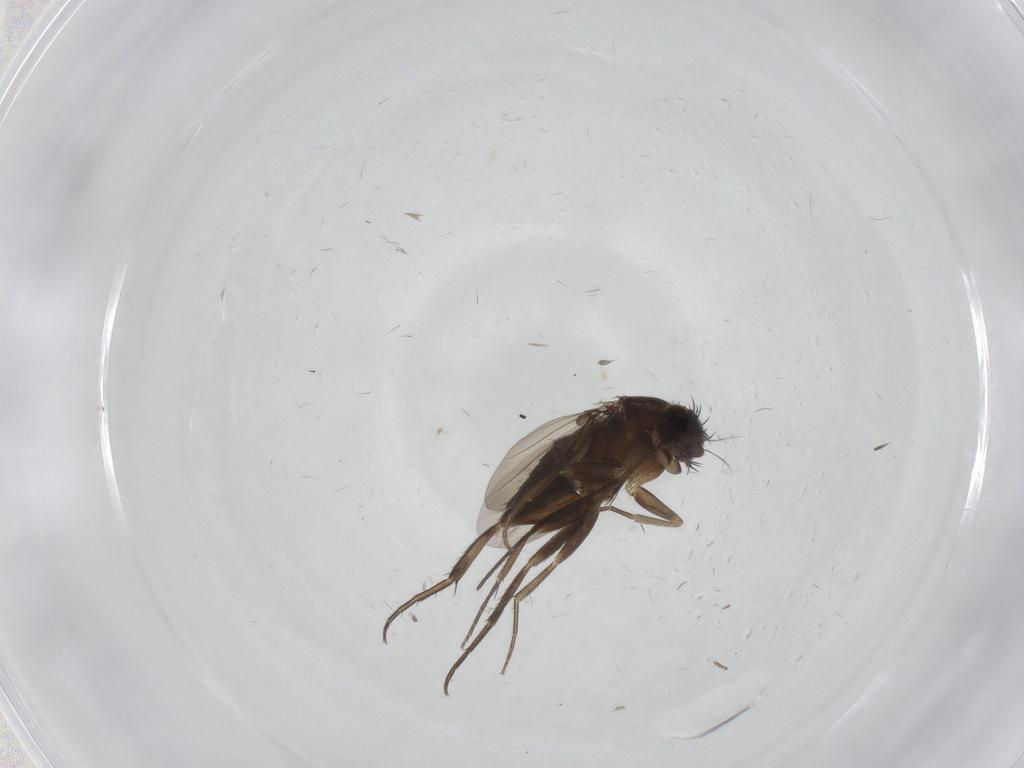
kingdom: Animalia
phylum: Arthropoda
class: Insecta
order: Diptera
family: Phoridae
